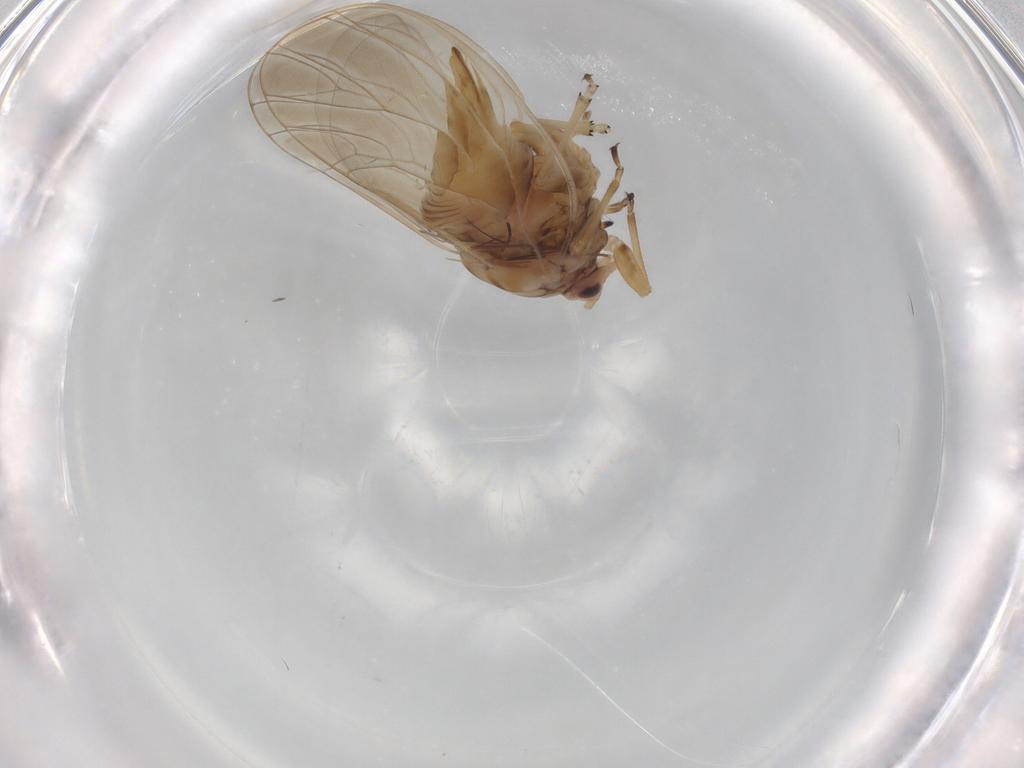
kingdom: Animalia
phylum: Arthropoda
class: Insecta
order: Hemiptera
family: Psyllidae
